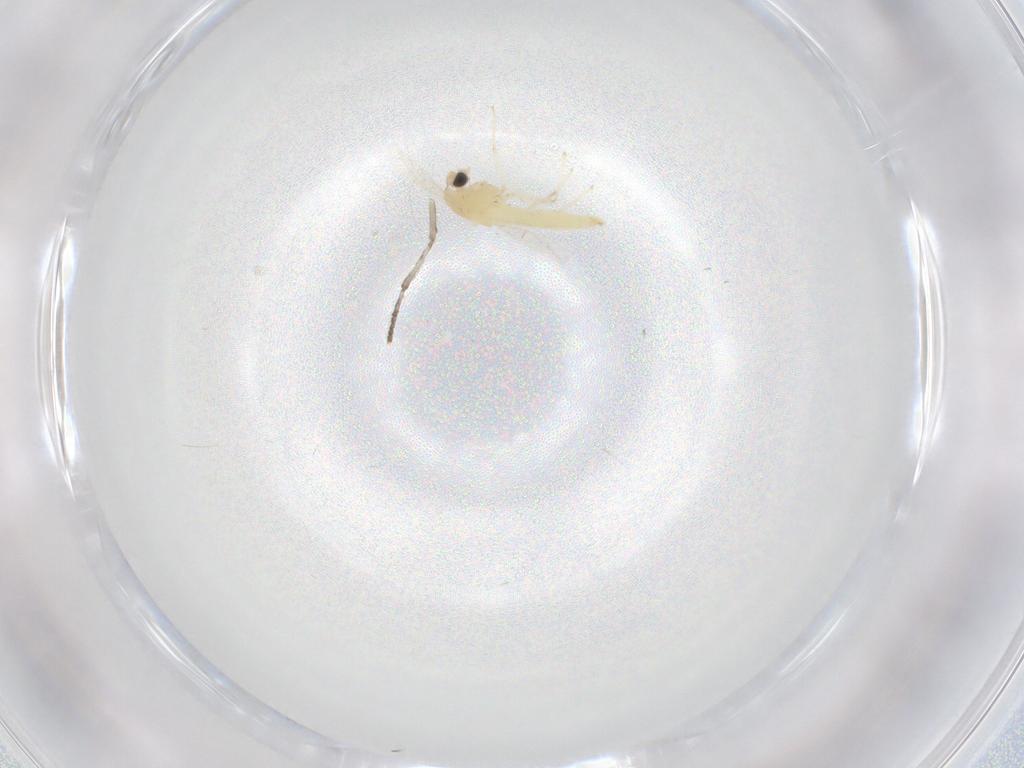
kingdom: Animalia
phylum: Arthropoda
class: Insecta
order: Diptera
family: Chironomidae
